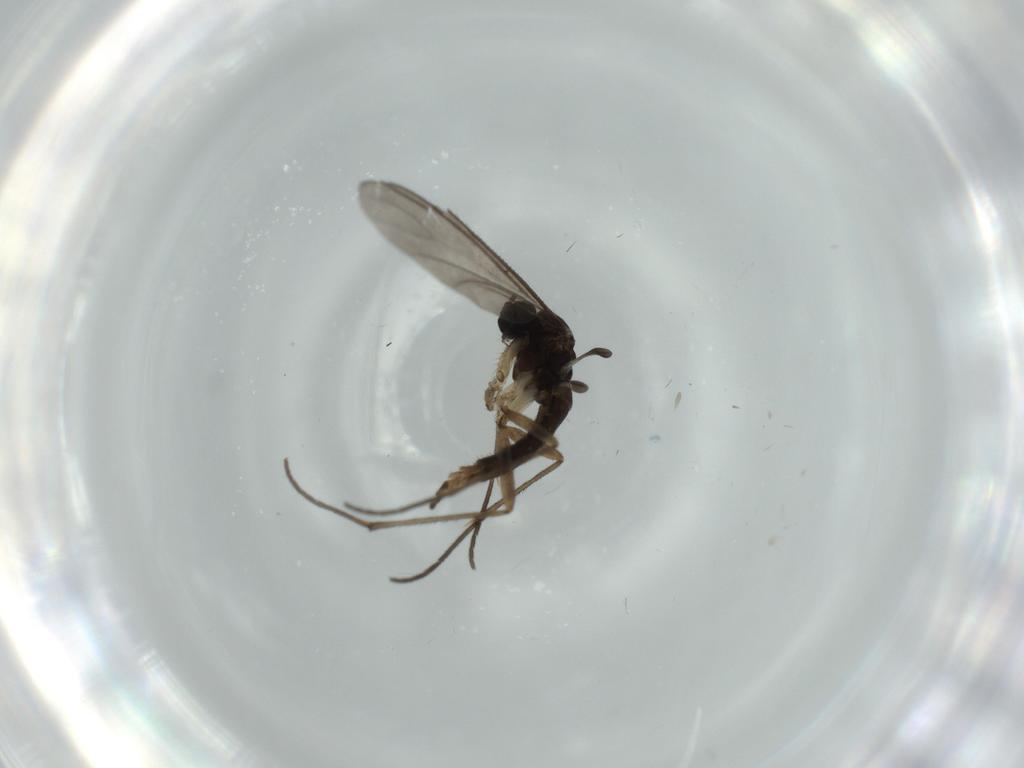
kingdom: Animalia
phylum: Arthropoda
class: Insecta
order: Diptera
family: Sciaridae
